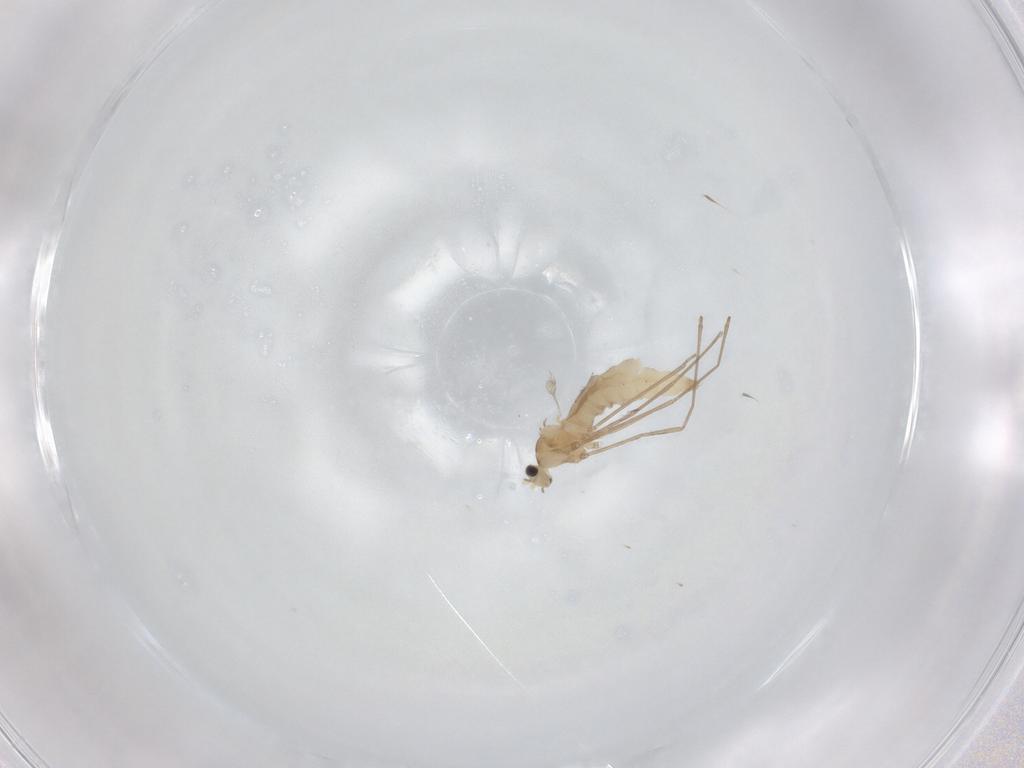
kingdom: Animalia
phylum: Arthropoda
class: Insecta
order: Diptera
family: Cecidomyiidae
